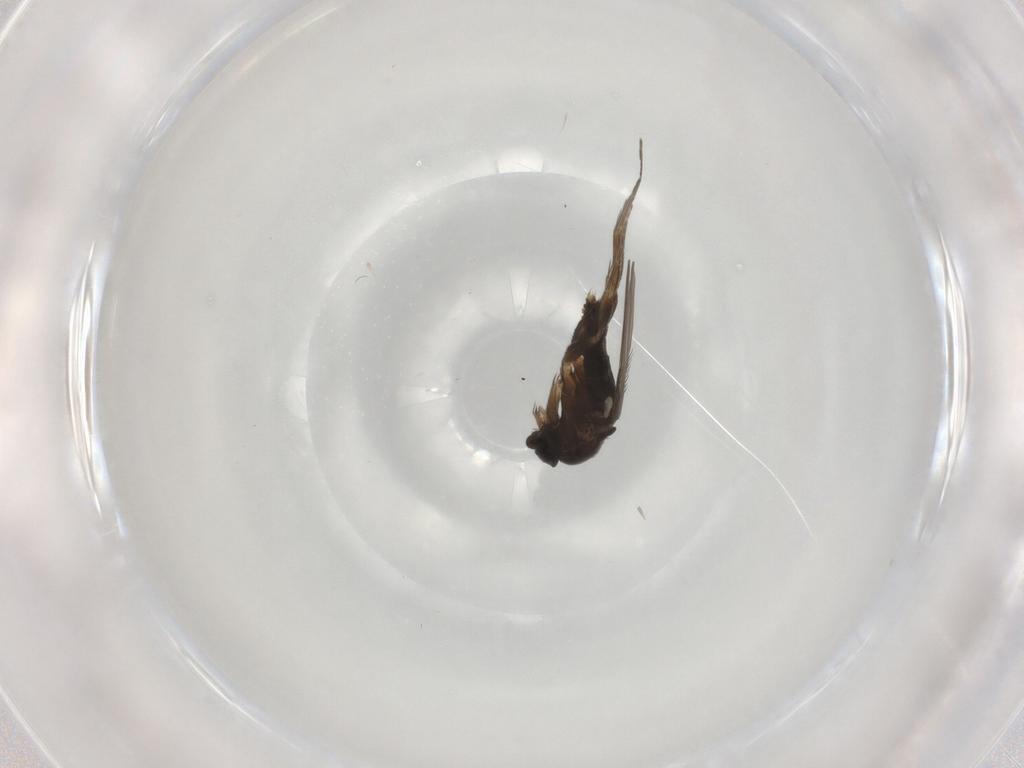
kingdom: Animalia
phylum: Arthropoda
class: Insecta
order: Diptera
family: Phoridae
